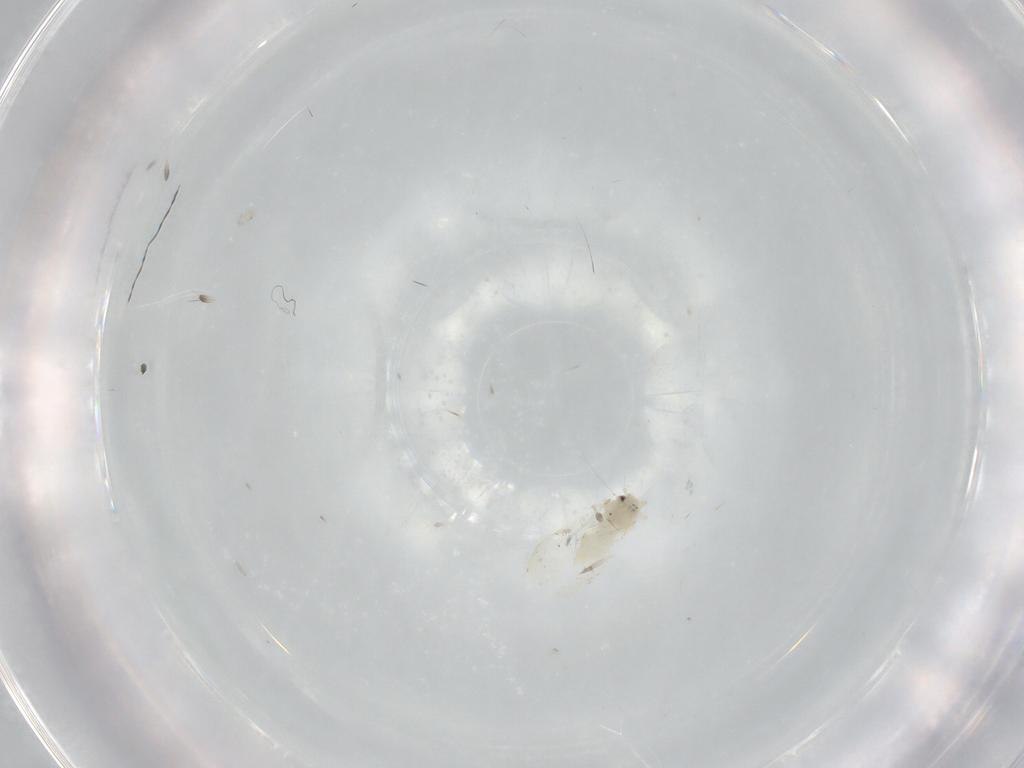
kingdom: Animalia
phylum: Arthropoda
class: Insecta
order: Hemiptera
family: Aleyrodidae
